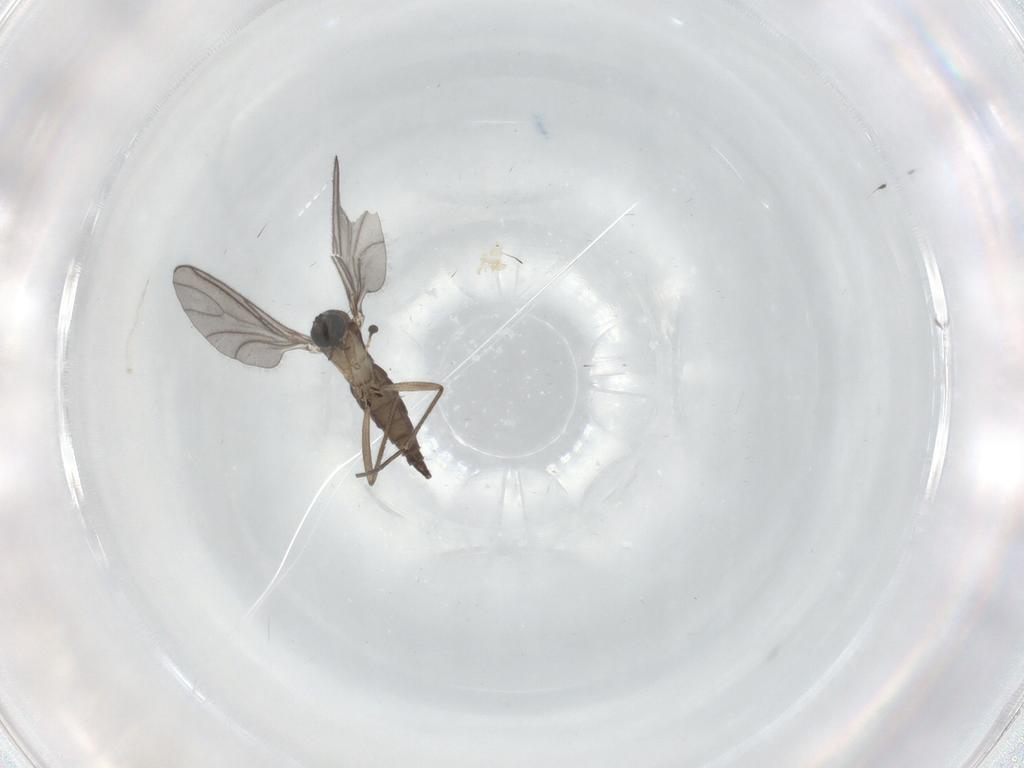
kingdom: Animalia
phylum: Arthropoda
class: Insecta
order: Diptera
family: Sciaridae
